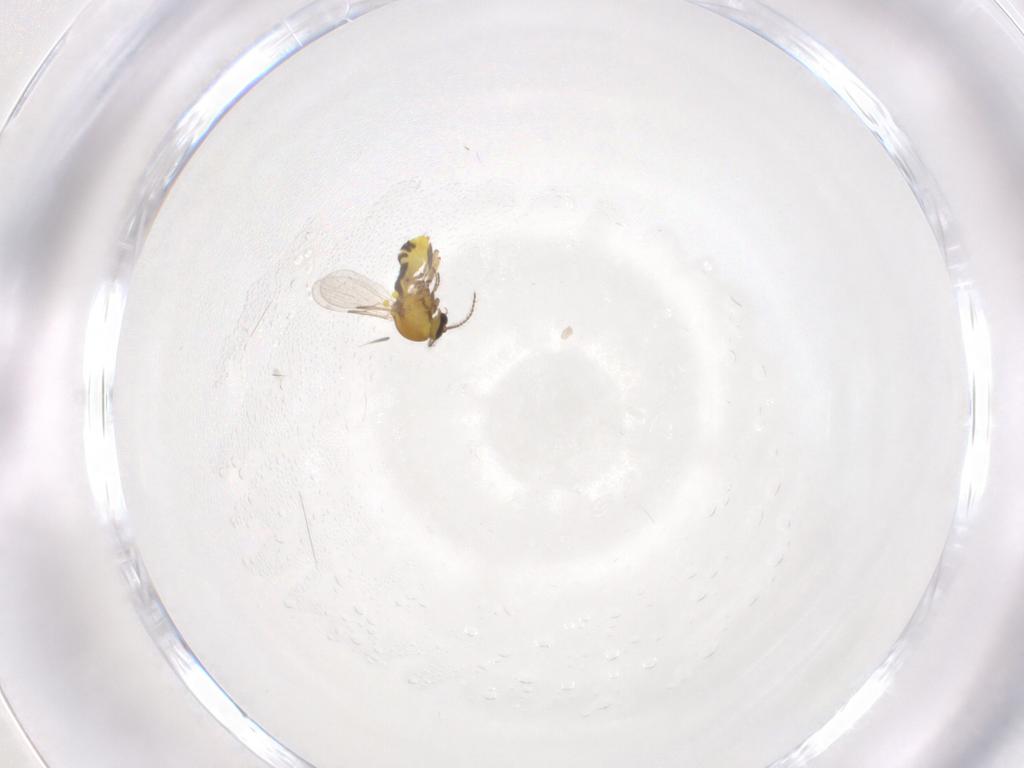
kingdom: Animalia
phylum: Arthropoda
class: Insecta
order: Diptera
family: Ceratopogonidae
